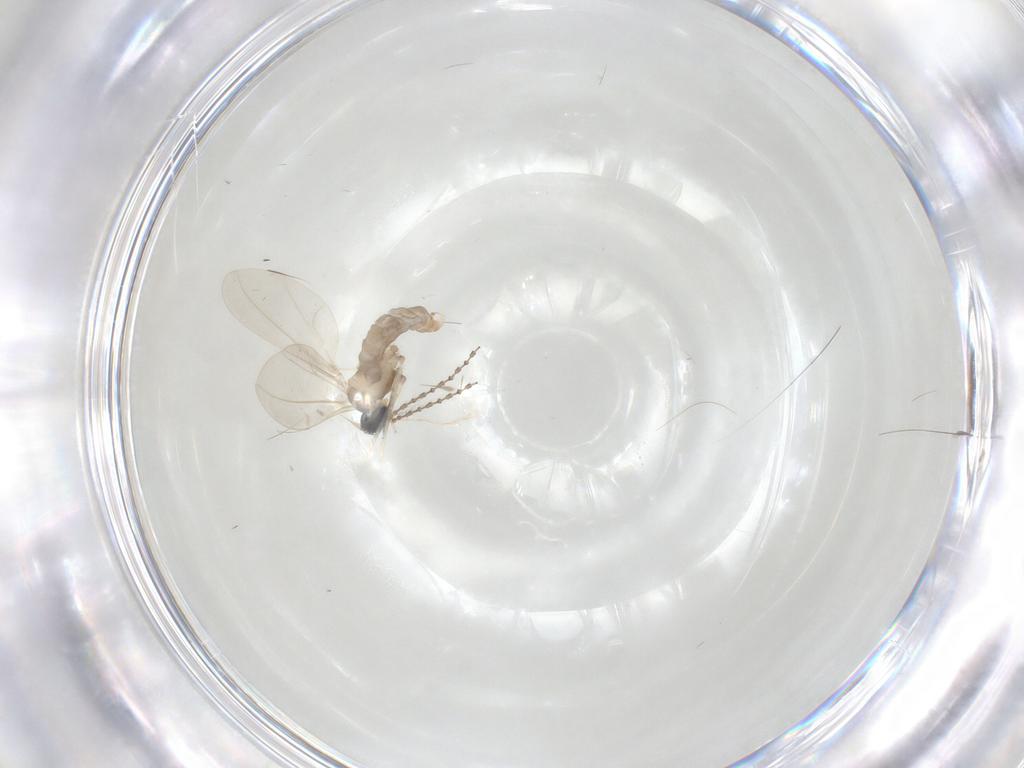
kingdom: Animalia
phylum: Arthropoda
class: Insecta
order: Diptera
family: Cecidomyiidae
